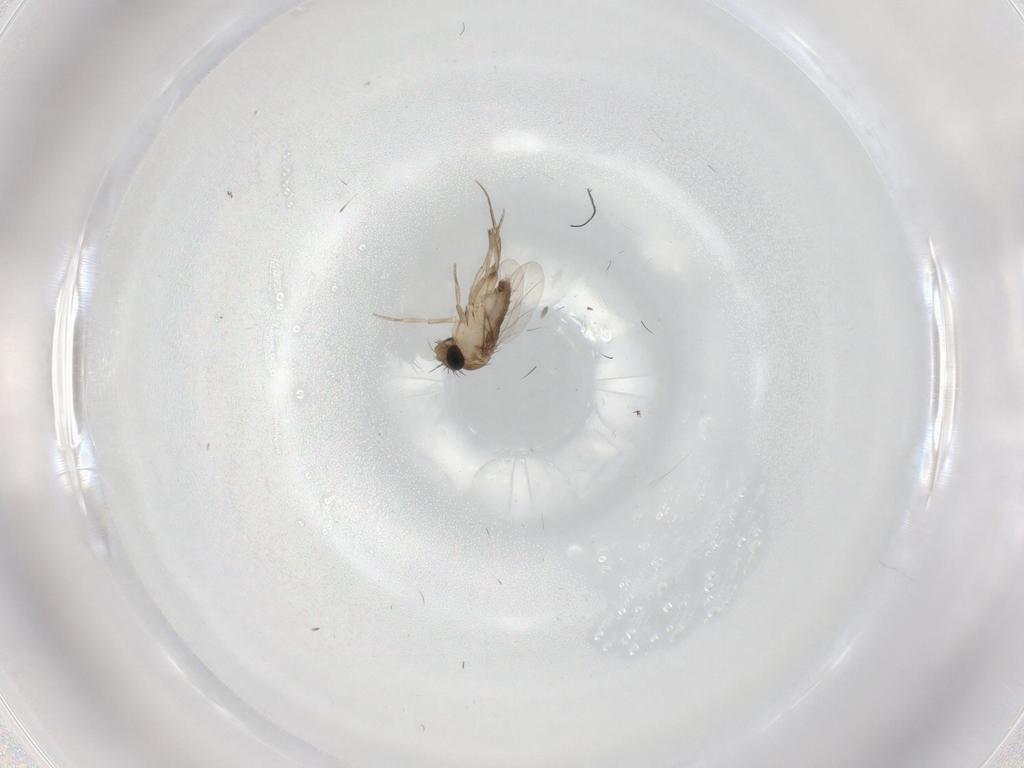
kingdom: Animalia
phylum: Arthropoda
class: Insecta
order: Diptera
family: Phoridae
